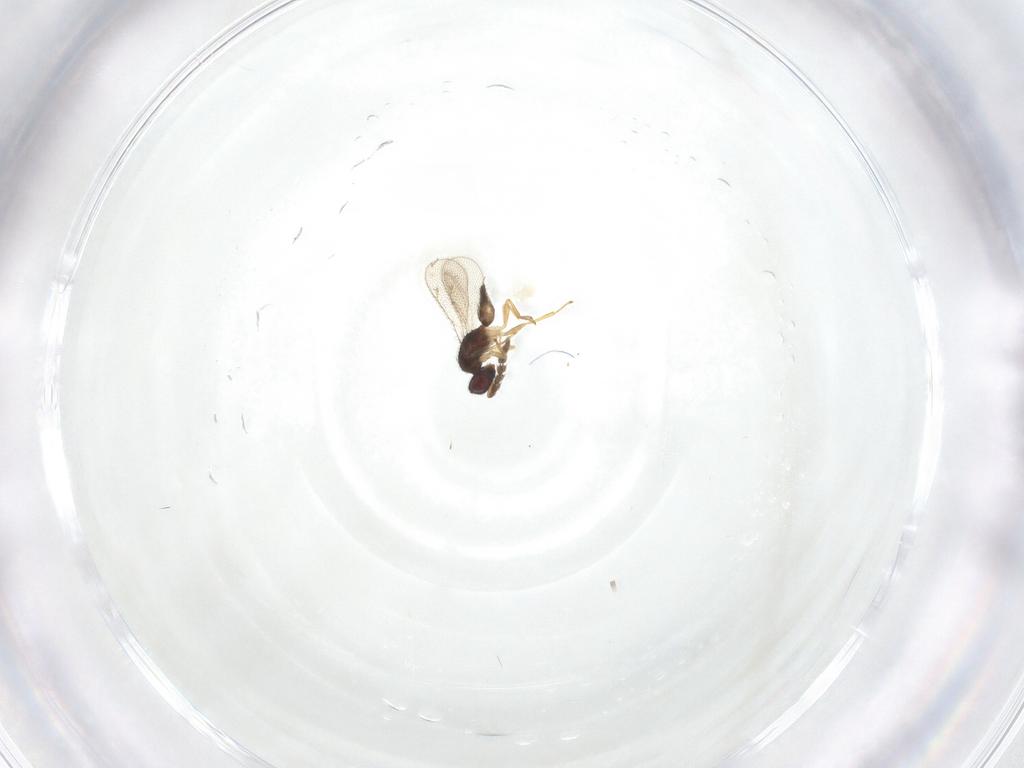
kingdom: Animalia
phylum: Arthropoda
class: Insecta
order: Hymenoptera
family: Eulophidae
